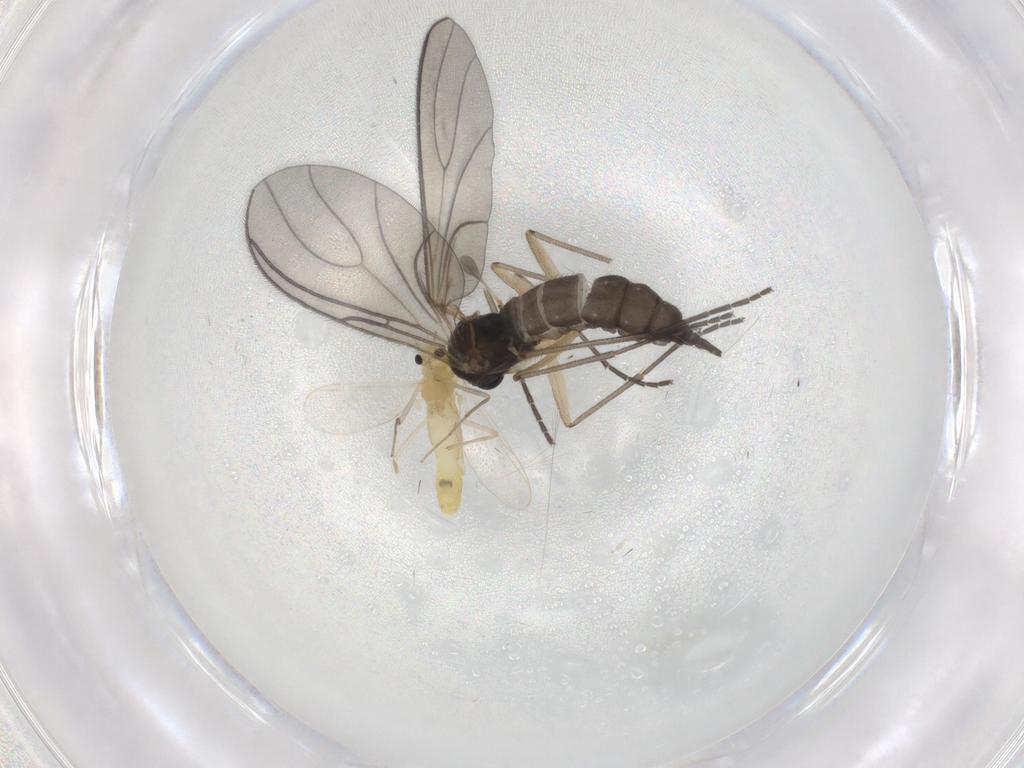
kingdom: Animalia
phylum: Arthropoda
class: Insecta
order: Diptera
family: Chironomidae
